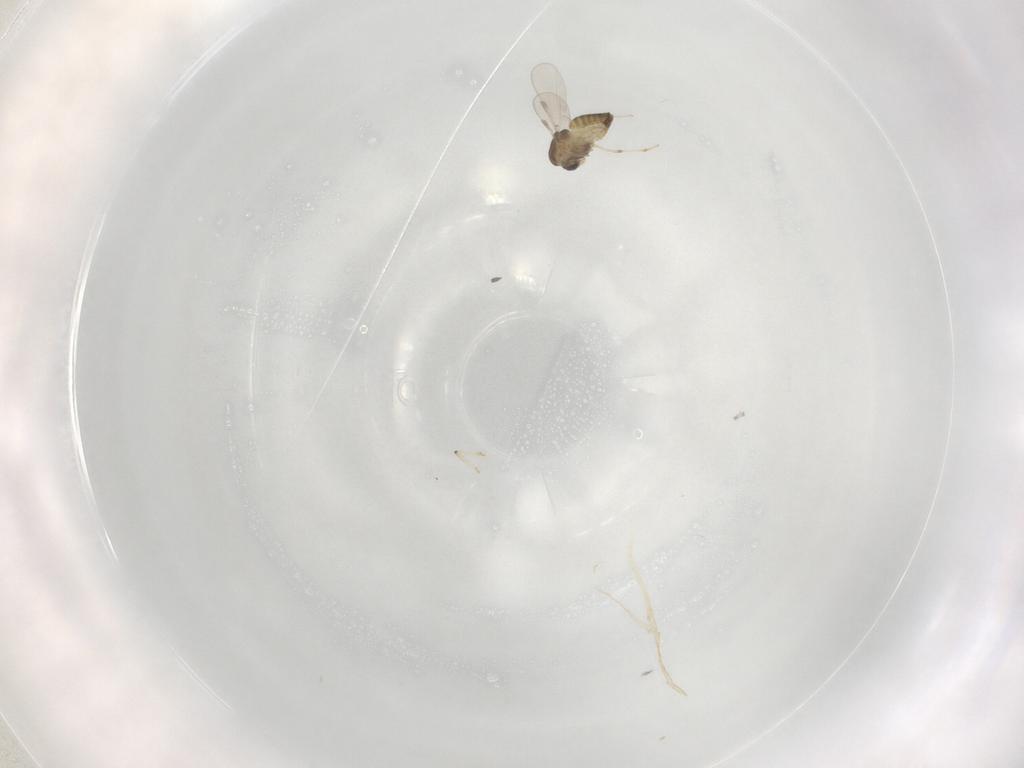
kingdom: Animalia
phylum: Arthropoda
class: Insecta
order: Diptera
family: Chironomidae
